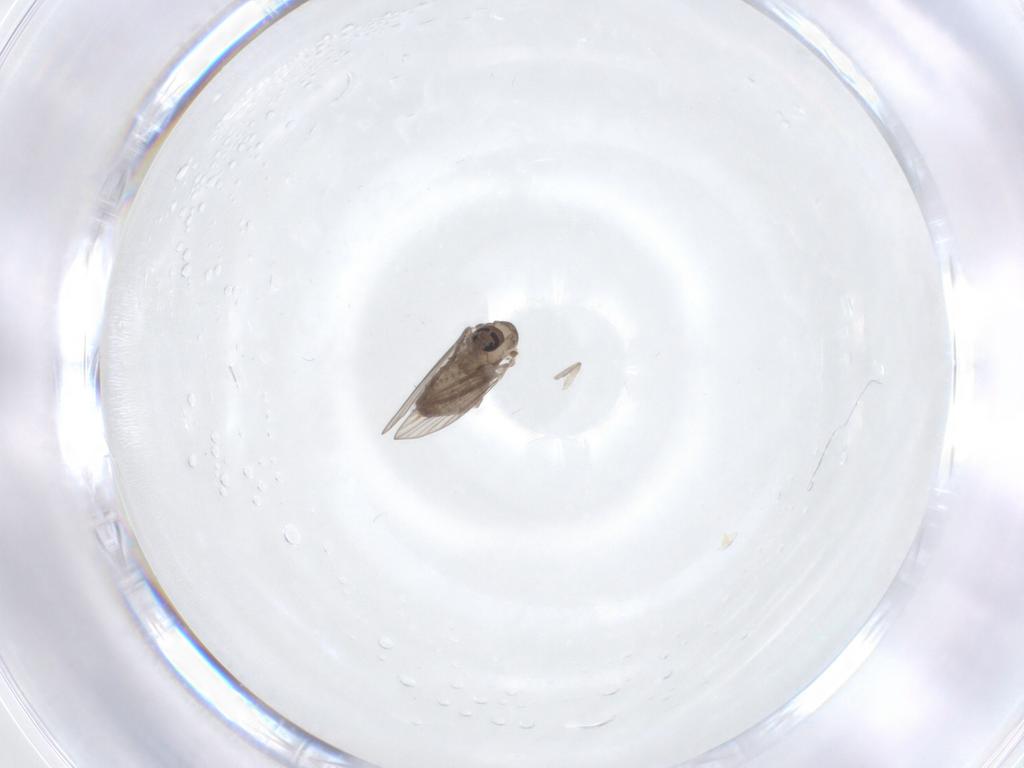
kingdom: Animalia
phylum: Arthropoda
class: Insecta
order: Diptera
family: Psychodidae
